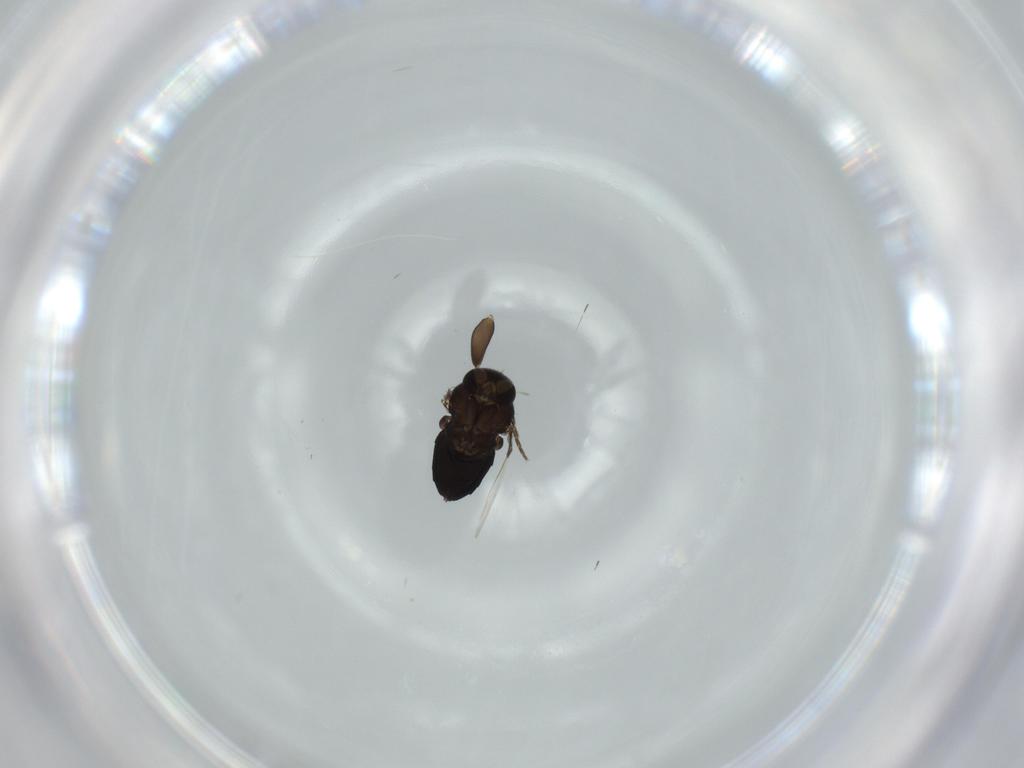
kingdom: Animalia
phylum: Arthropoda
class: Insecta
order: Diptera
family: Phoridae
